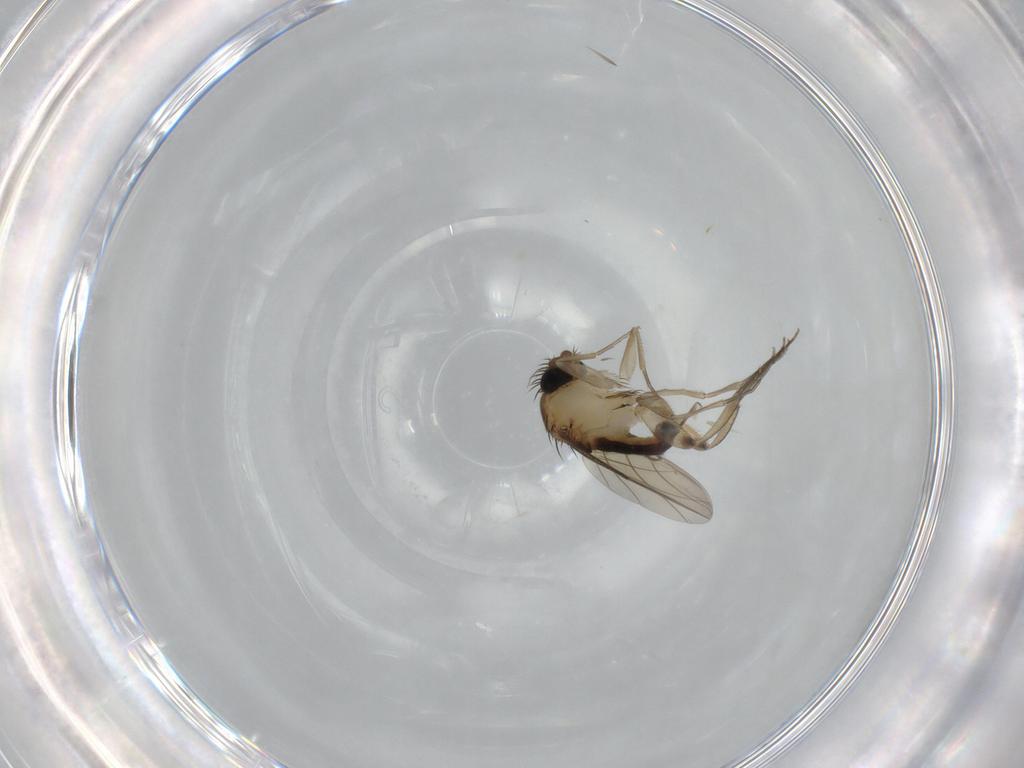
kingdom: Animalia
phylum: Arthropoda
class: Insecta
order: Diptera
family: Phoridae
